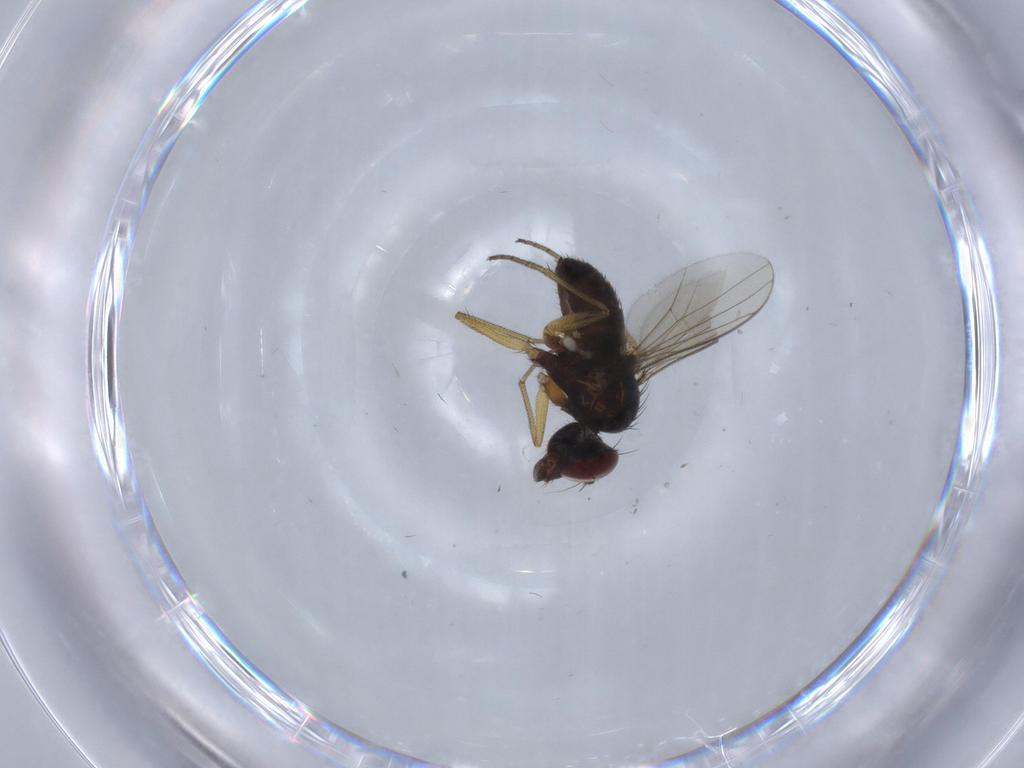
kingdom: Animalia
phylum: Arthropoda
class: Insecta
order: Diptera
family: Dolichopodidae
